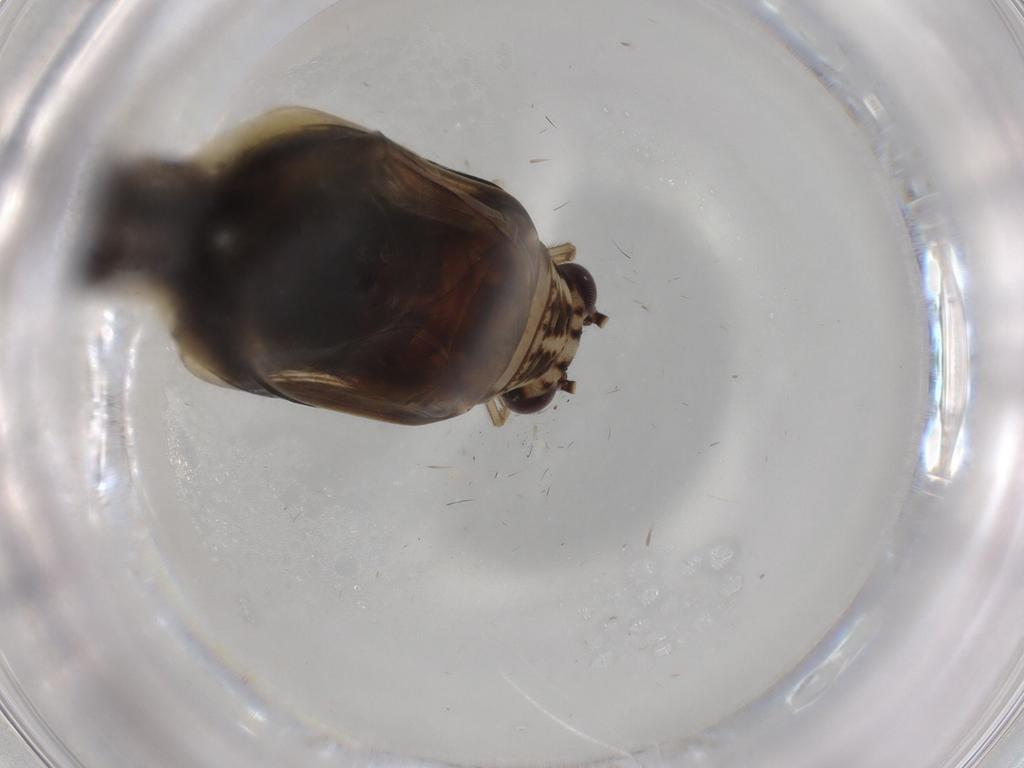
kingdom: Animalia
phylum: Arthropoda
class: Insecta
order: Orthoptera
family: Trigonidiidae
